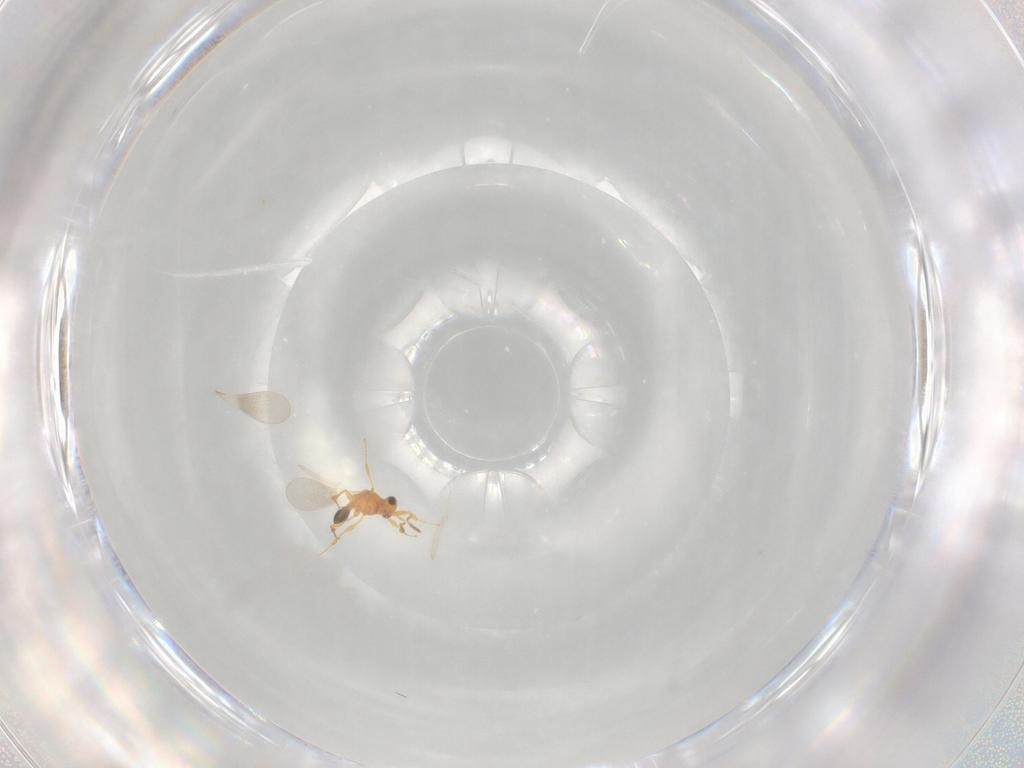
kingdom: Animalia
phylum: Arthropoda
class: Insecta
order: Hymenoptera
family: Platygastridae
